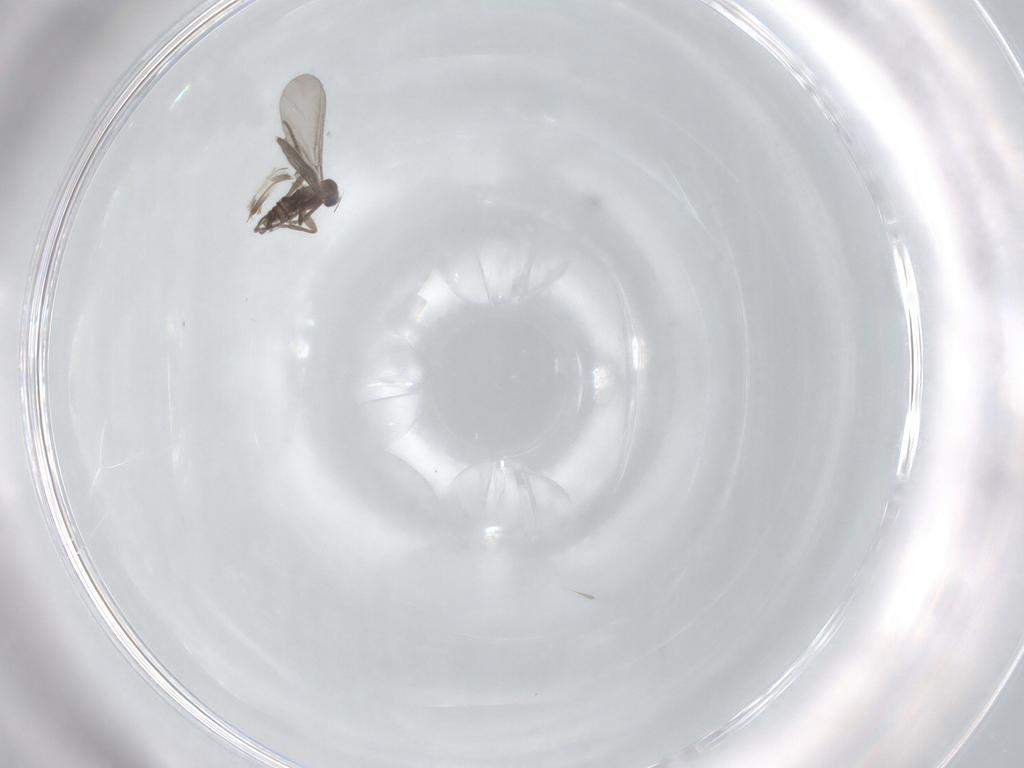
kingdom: Animalia
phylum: Arthropoda
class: Insecta
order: Diptera
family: Sciaridae
